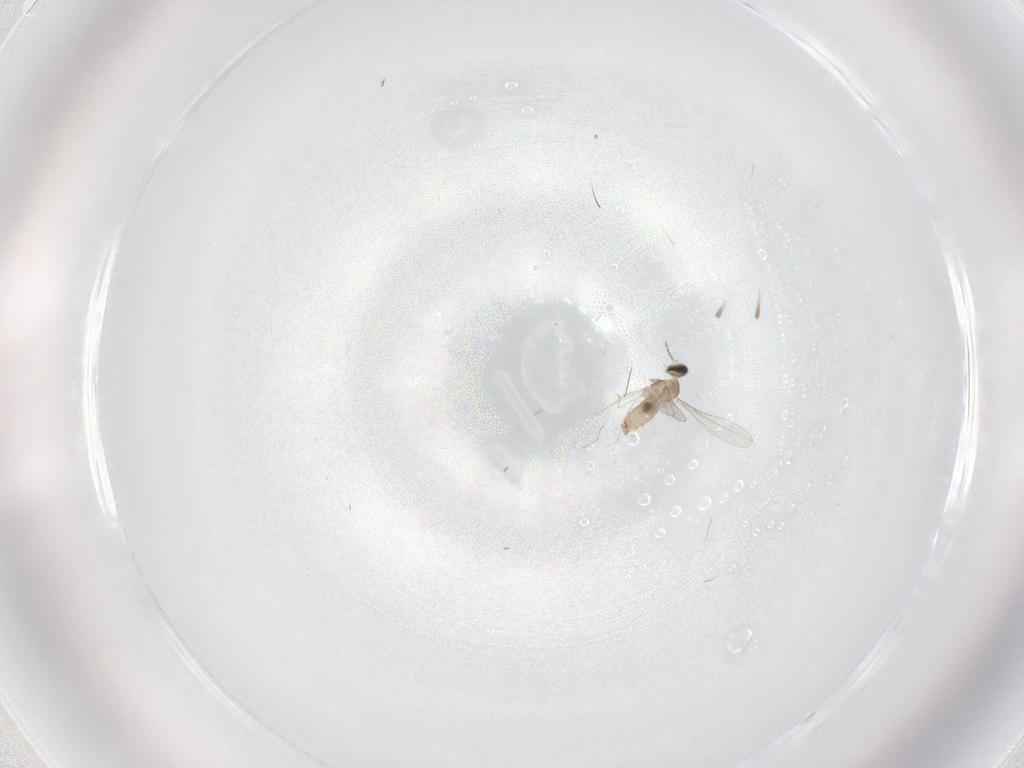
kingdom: Animalia
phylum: Arthropoda
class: Insecta
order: Diptera
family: Cecidomyiidae
